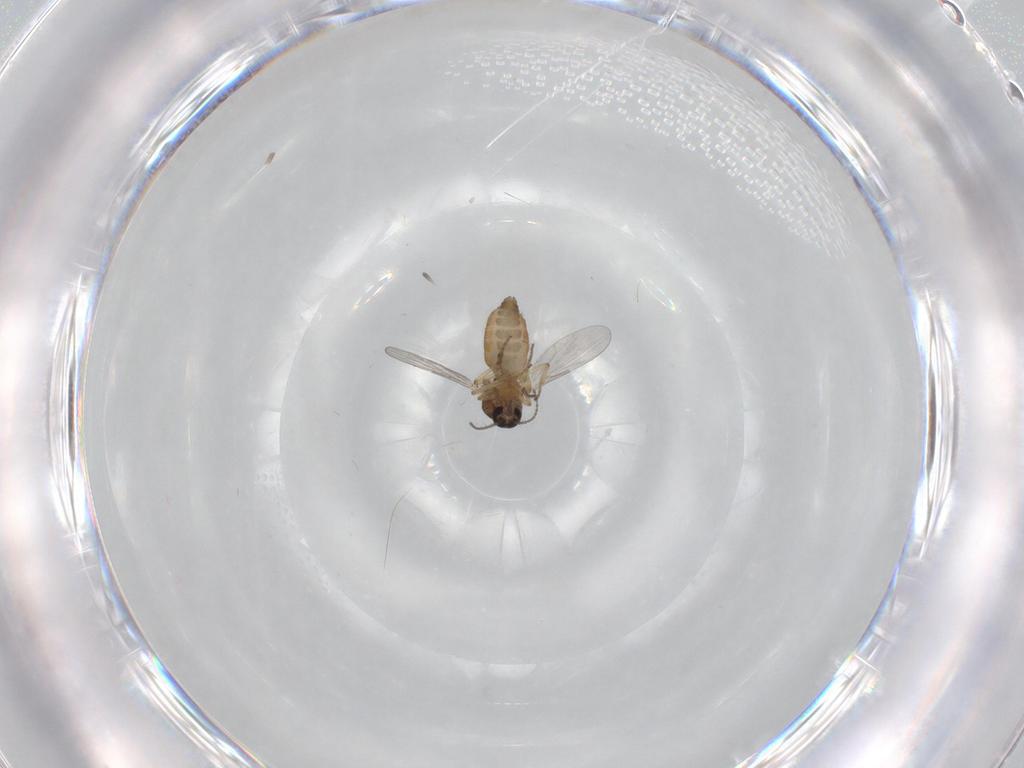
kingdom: Animalia
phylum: Arthropoda
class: Insecta
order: Diptera
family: Ceratopogonidae
